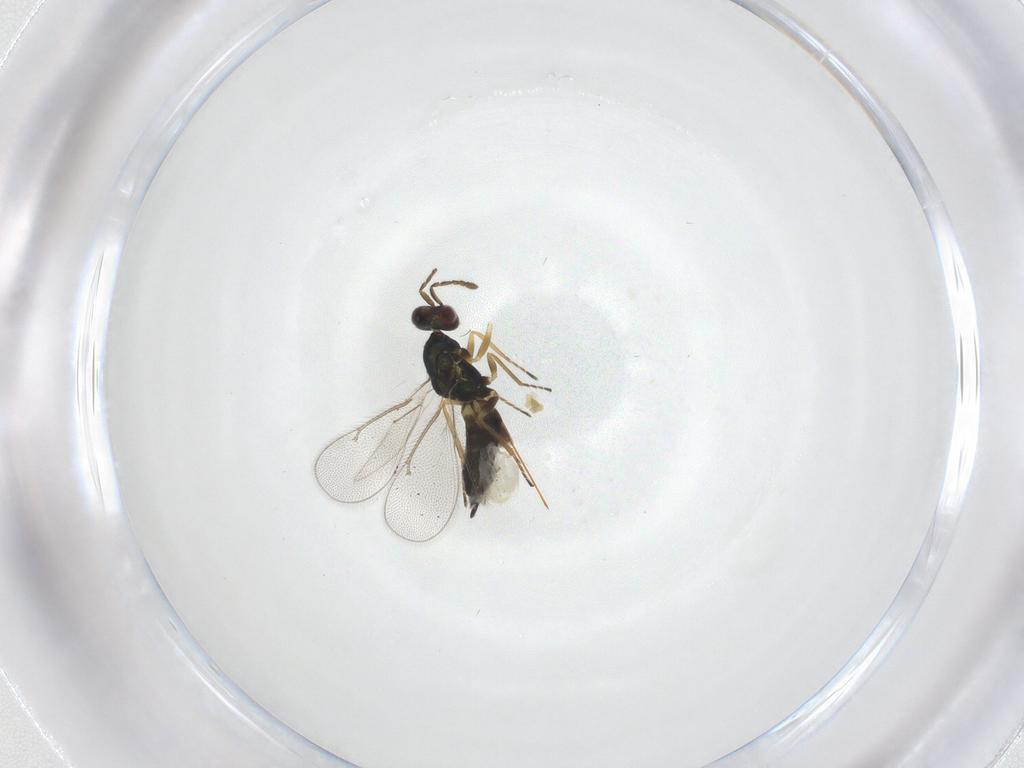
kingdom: Animalia
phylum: Arthropoda
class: Insecta
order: Hymenoptera
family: Eulophidae
